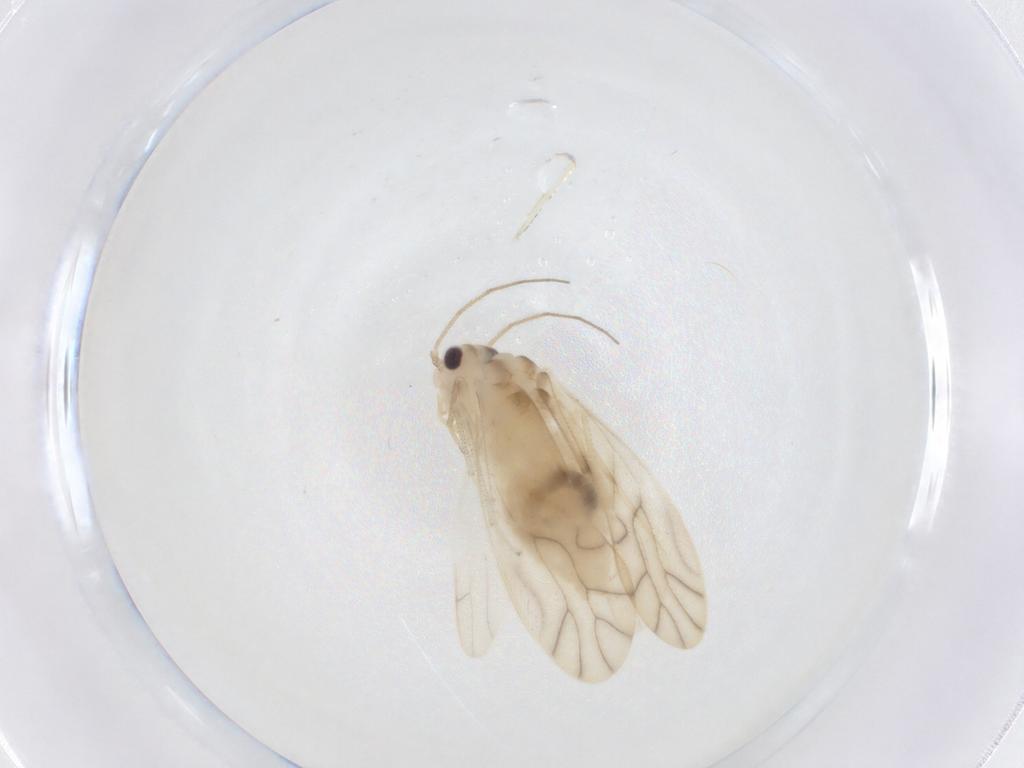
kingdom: Animalia
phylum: Arthropoda
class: Insecta
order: Psocodea
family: Caeciliusidae
